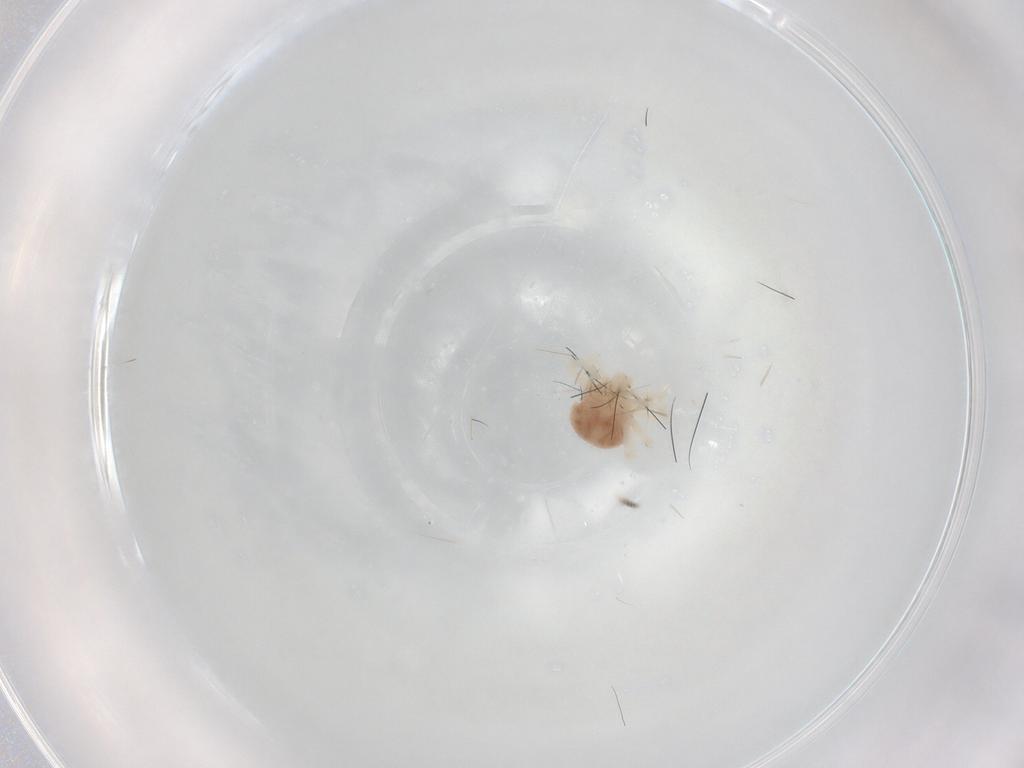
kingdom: Animalia
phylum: Arthropoda
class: Arachnida
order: Trombidiformes
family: Anystidae
